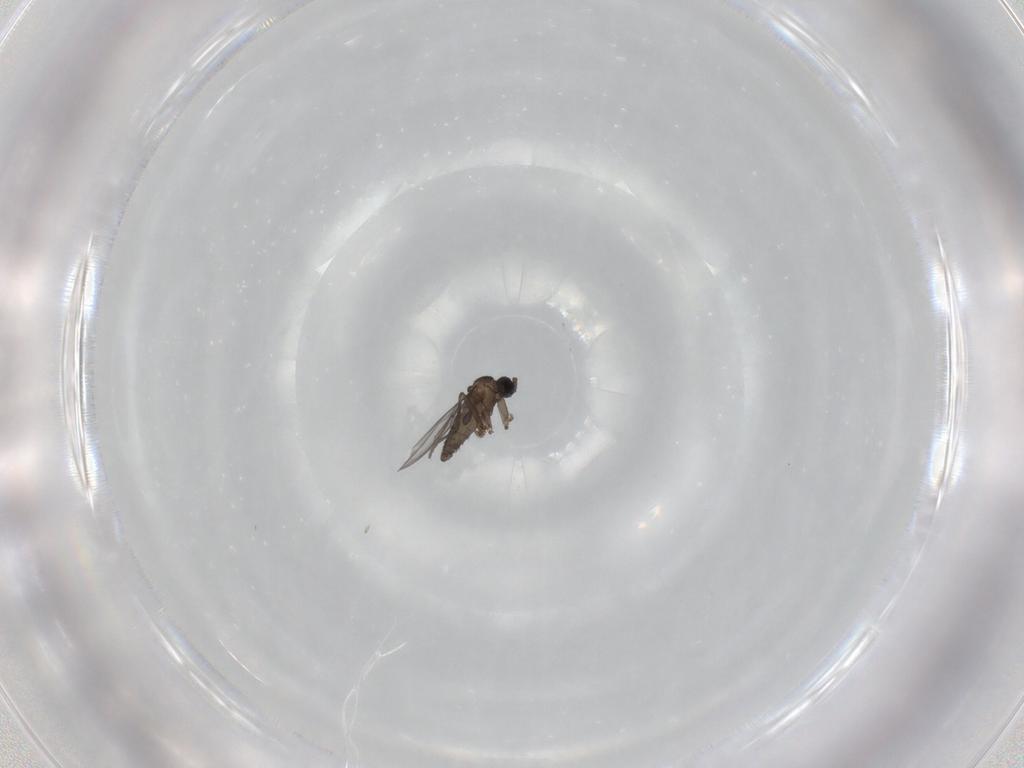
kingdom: Animalia
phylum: Arthropoda
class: Insecta
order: Diptera
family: Sciaridae
